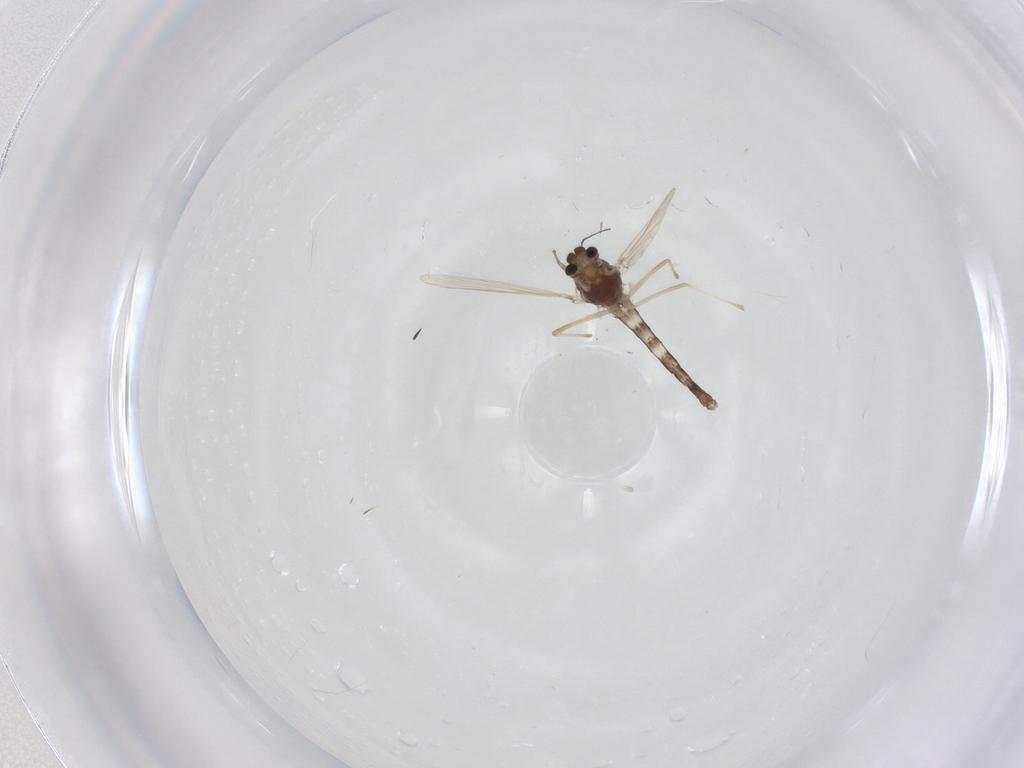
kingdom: Animalia
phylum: Arthropoda
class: Insecta
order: Diptera
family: Chironomidae
